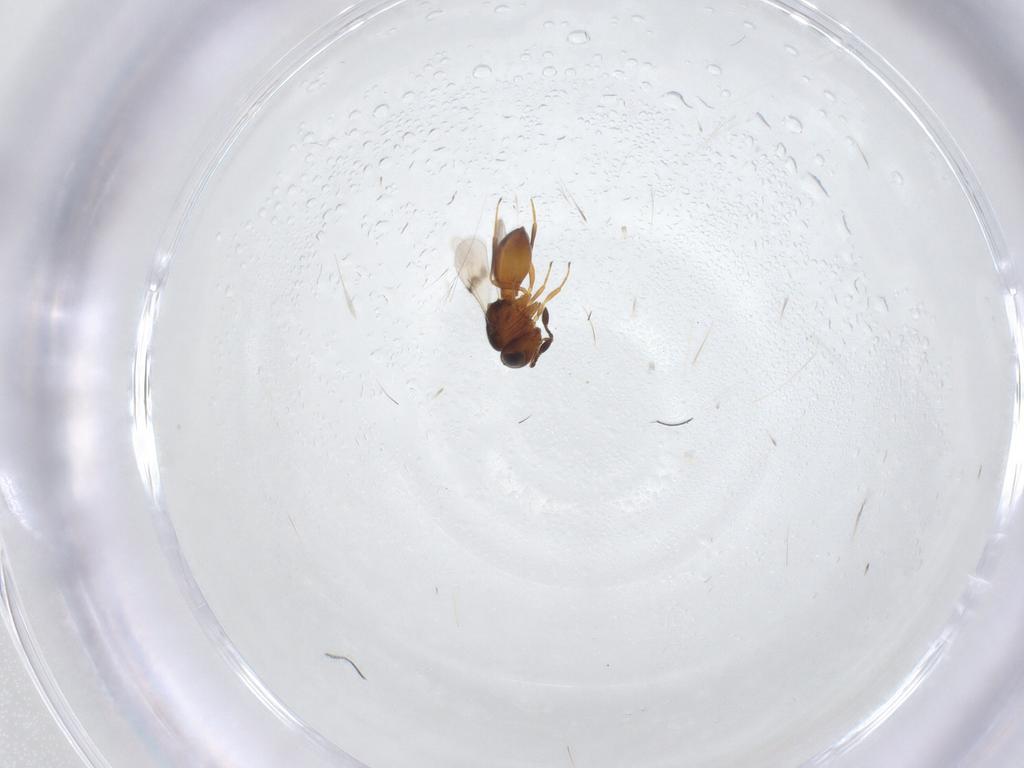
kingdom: Animalia
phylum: Arthropoda
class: Insecta
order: Hymenoptera
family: Scelionidae
